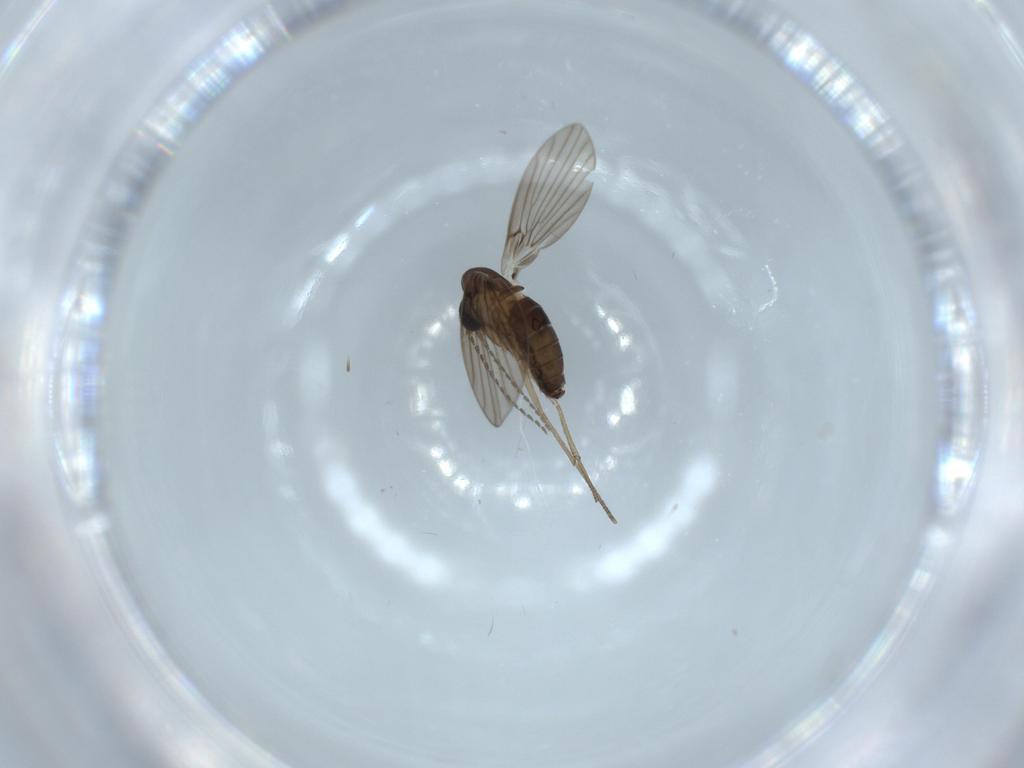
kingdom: Animalia
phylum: Arthropoda
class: Insecta
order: Diptera
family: Psychodidae
